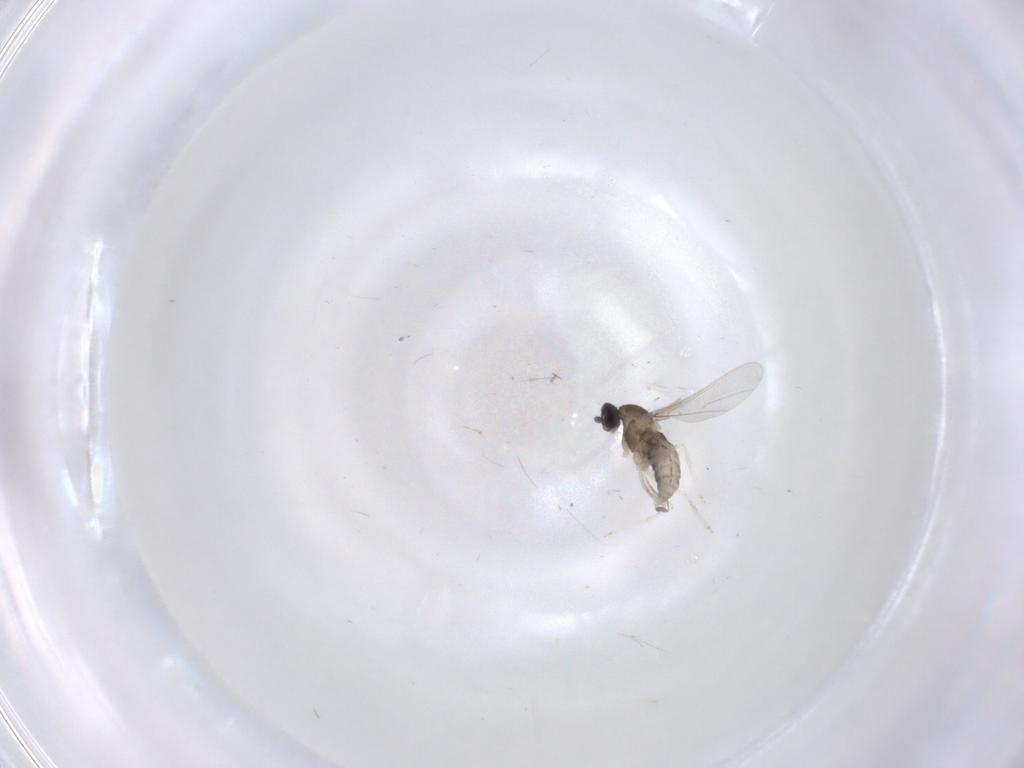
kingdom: Animalia
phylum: Arthropoda
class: Insecta
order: Diptera
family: Cecidomyiidae
